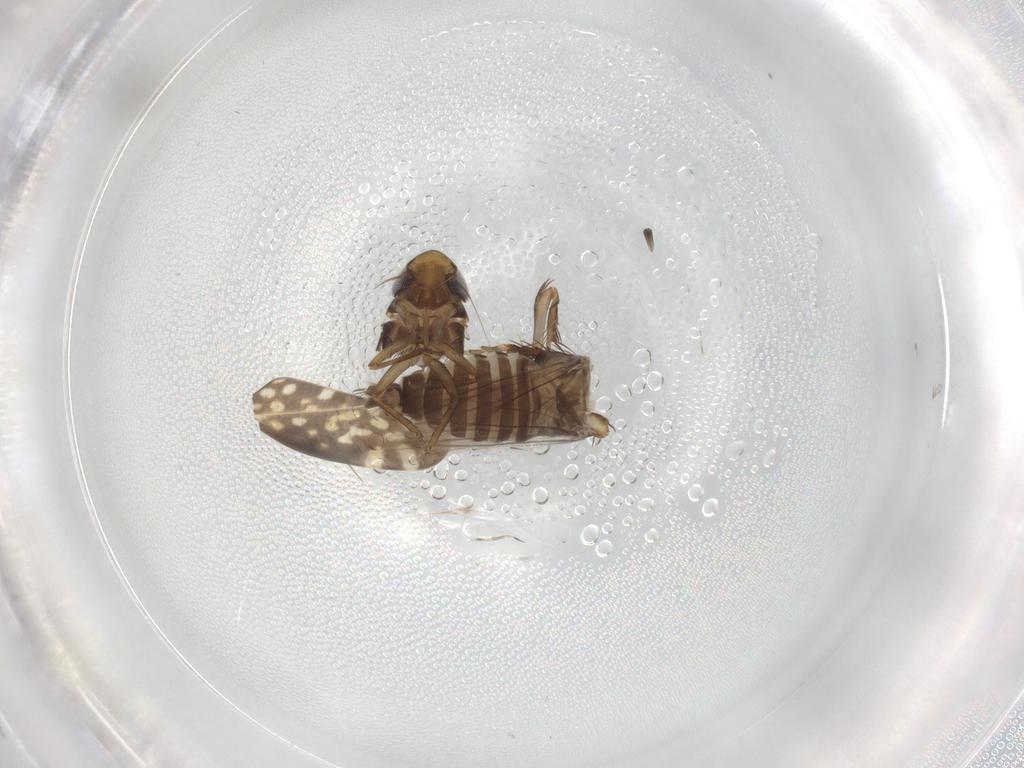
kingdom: Animalia
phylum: Arthropoda
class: Insecta
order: Hemiptera
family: Cicadellidae
